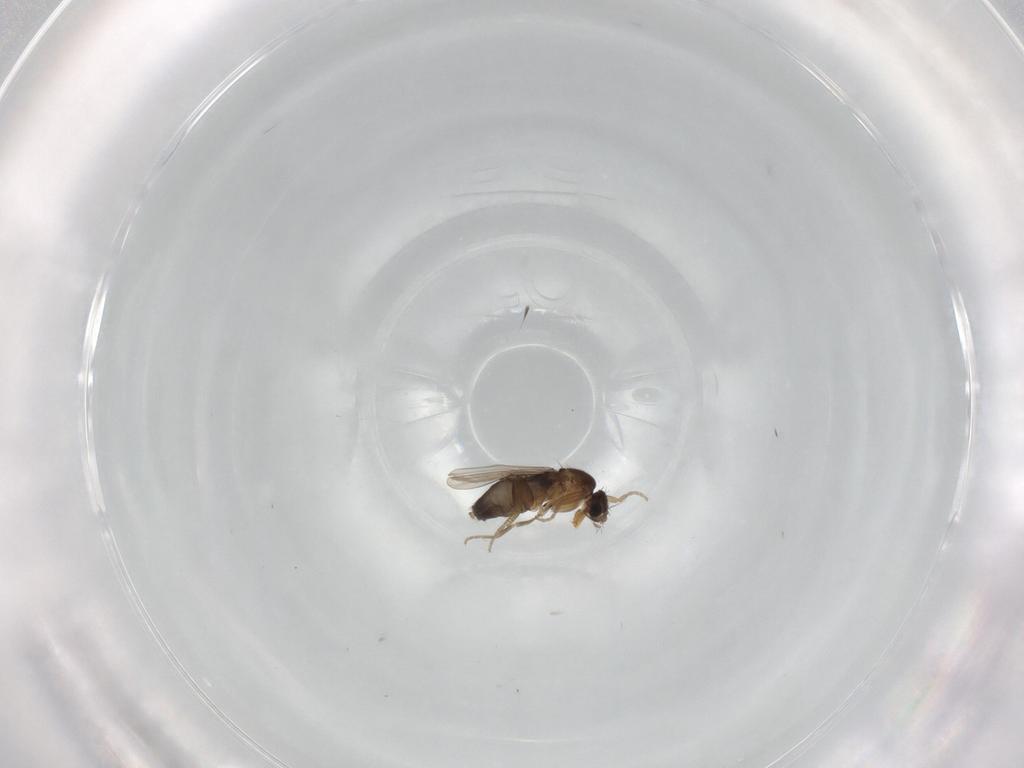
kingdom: Animalia
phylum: Arthropoda
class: Insecta
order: Diptera
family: Phoridae
